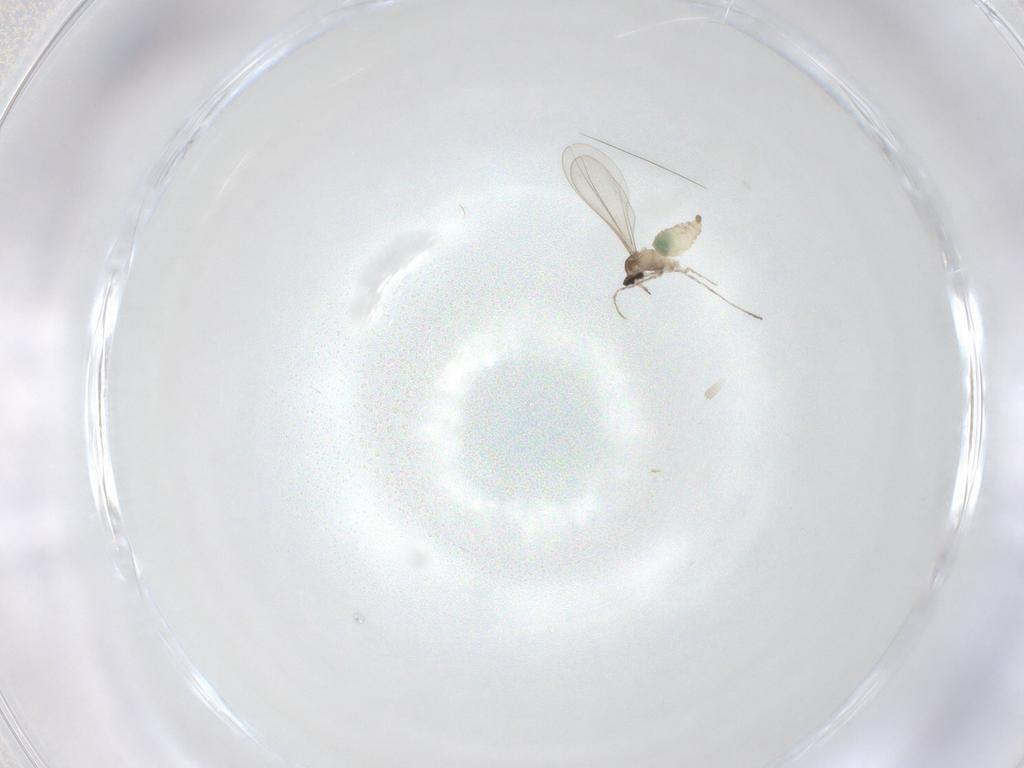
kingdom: Animalia
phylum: Arthropoda
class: Insecta
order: Diptera
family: Cecidomyiidae
